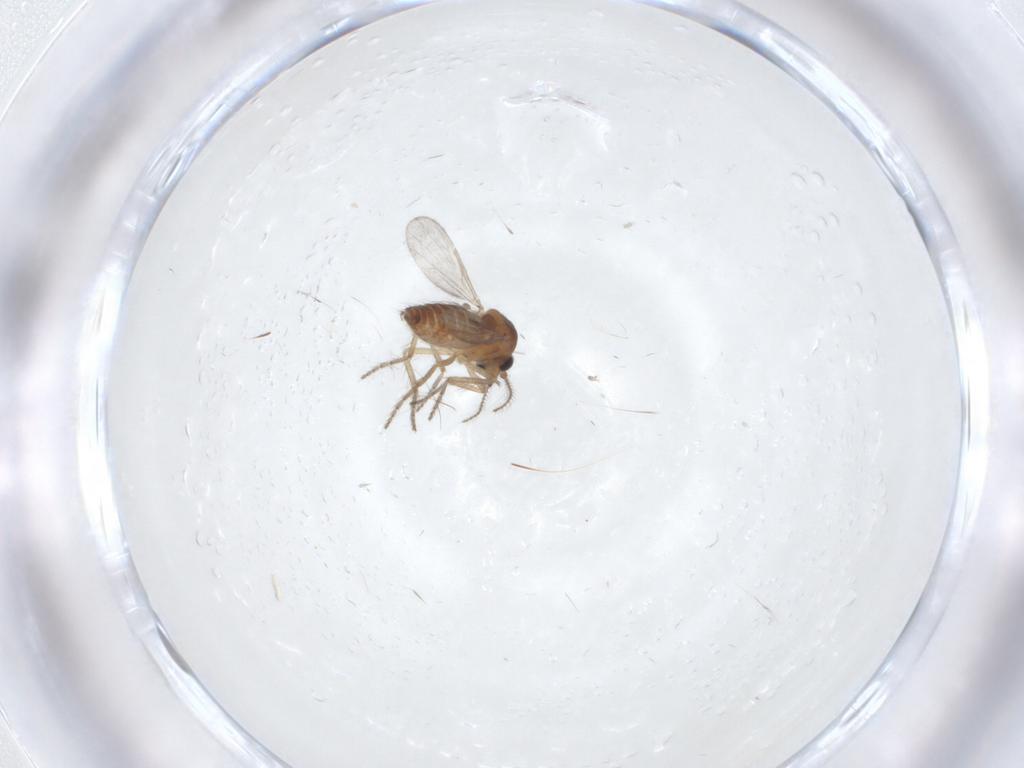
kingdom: Animalia
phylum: Arthropoda
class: Insecta
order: Diptera
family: Ceratopogonidae
